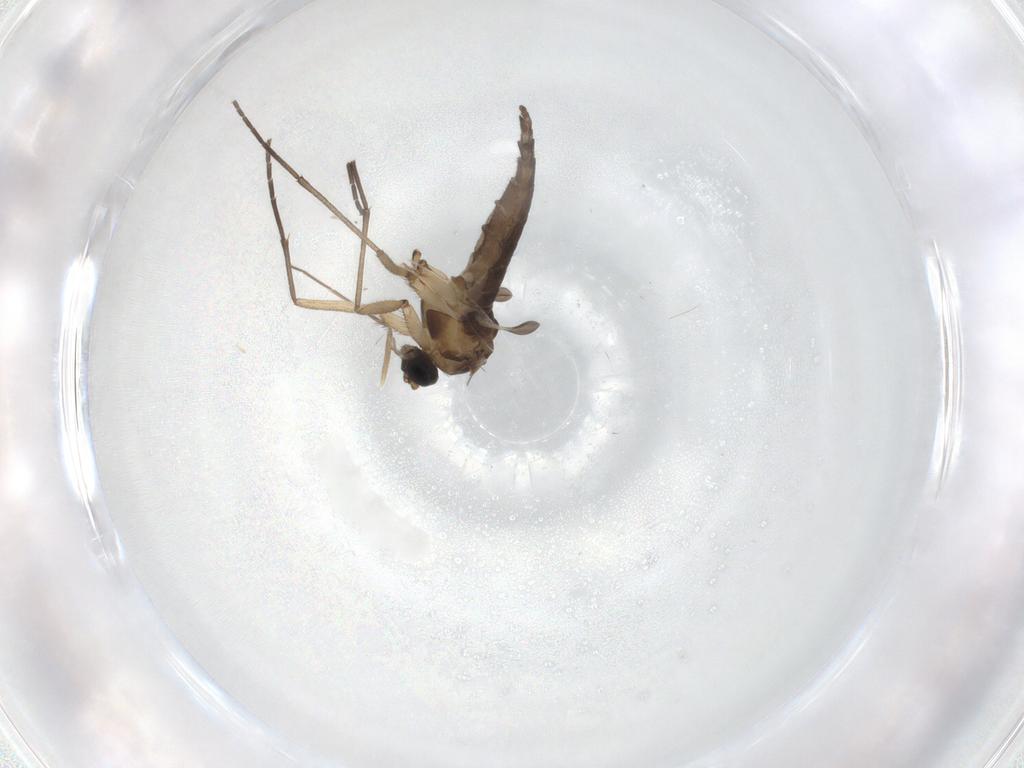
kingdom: Animalia
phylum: Arthropoda
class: Insecta
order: Diptera
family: Sciaridae
